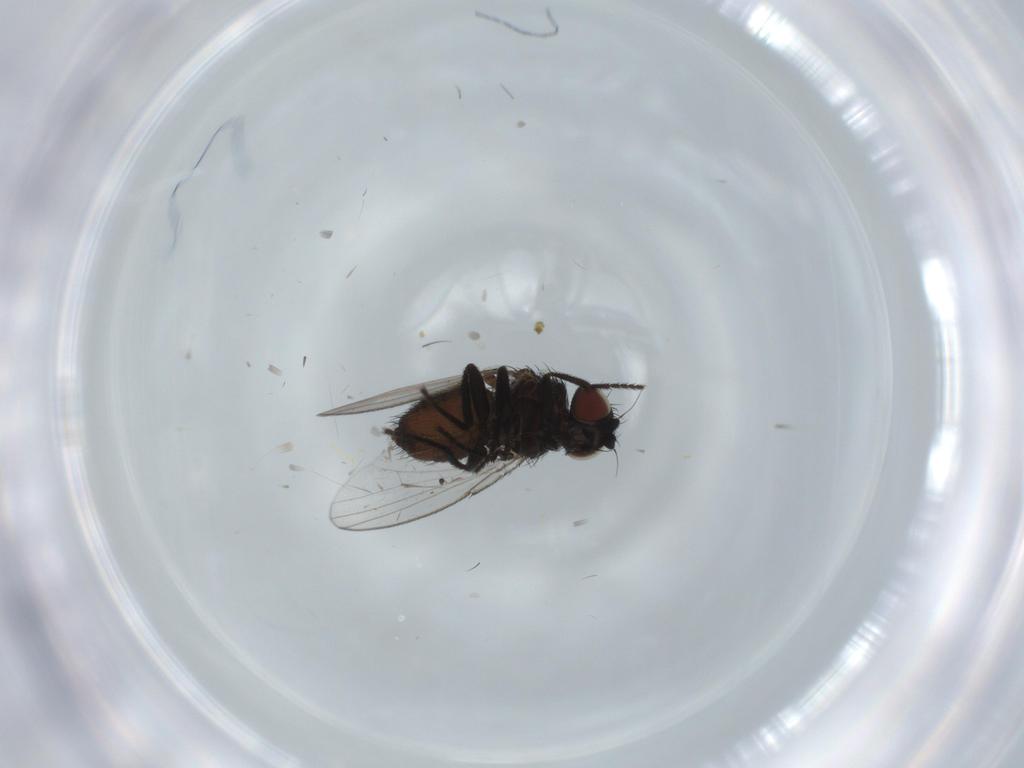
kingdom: Animalia
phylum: Arthropoda
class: Insecta
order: Diptera
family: Milichiidae
